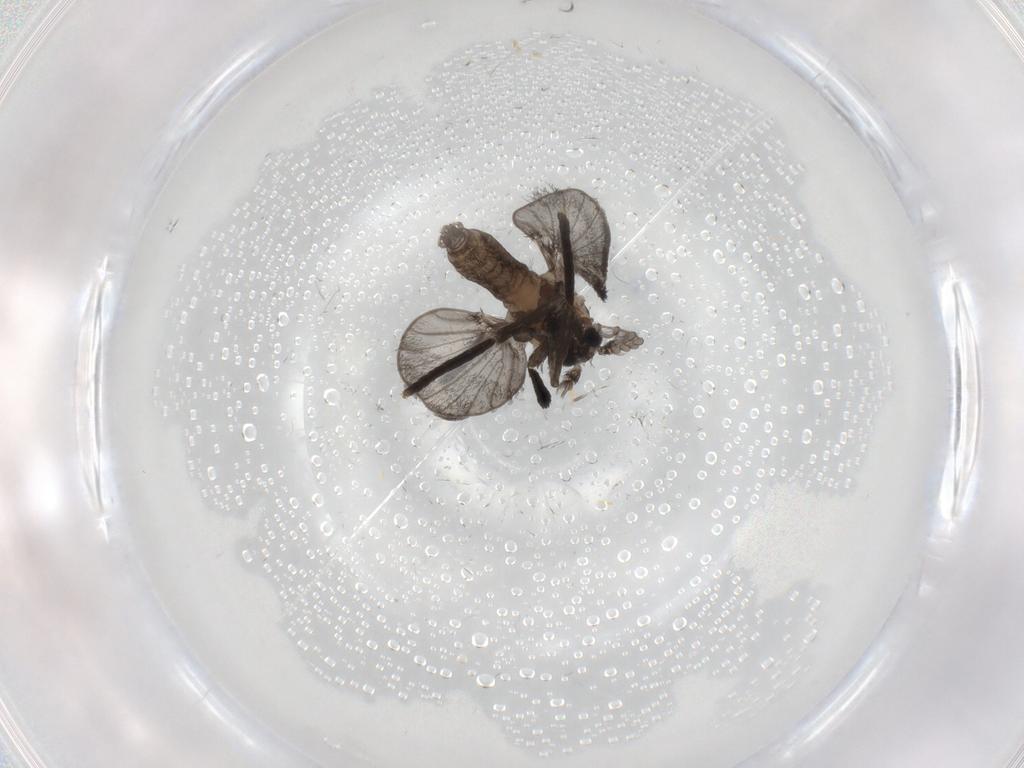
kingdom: Animalia
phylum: Arthropoda
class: Insecta
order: Diptera
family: Psychodidae
